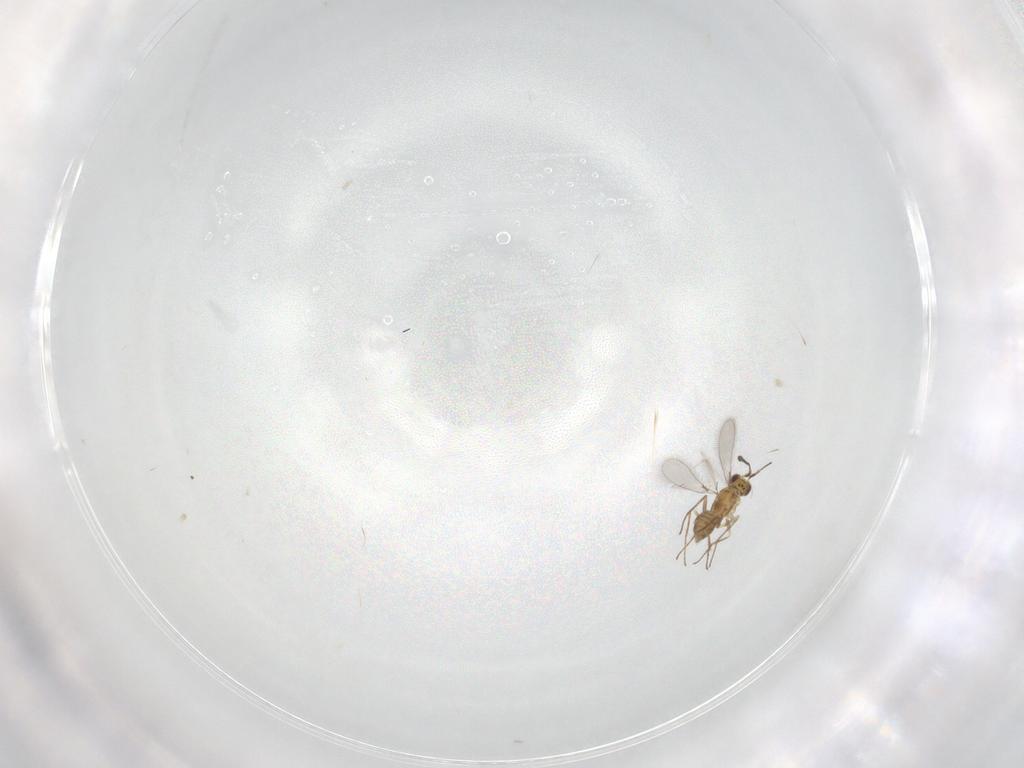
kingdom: Animalia
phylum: Arthropoda
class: Insecta
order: Hymenoptera
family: Mymaridae
